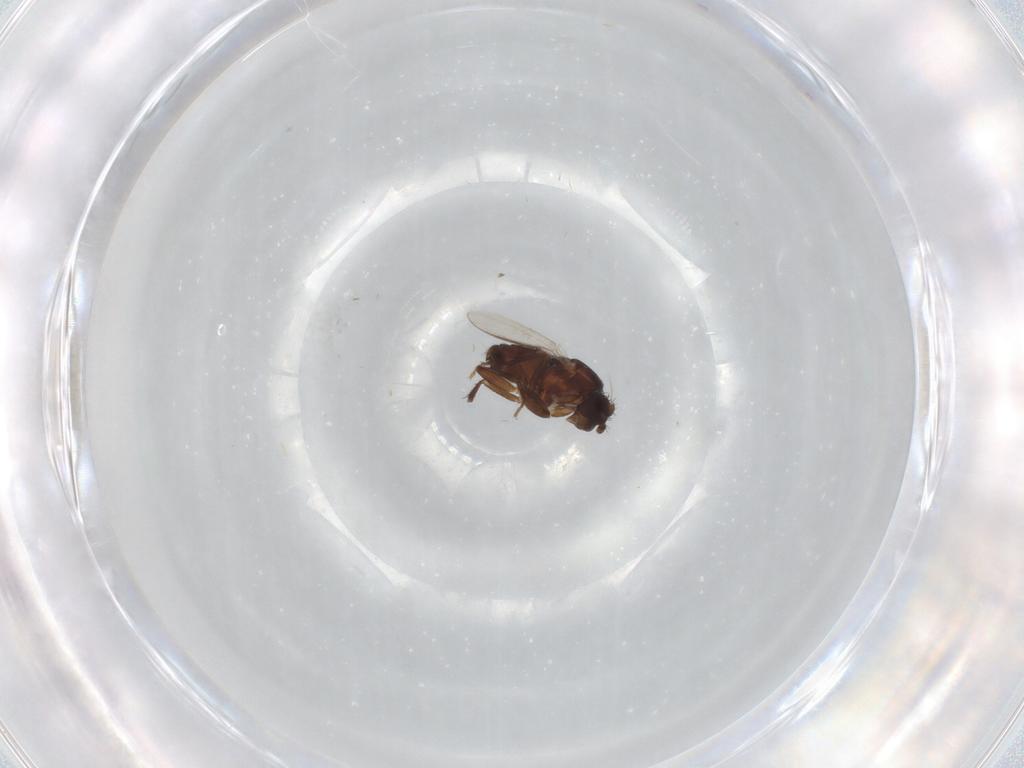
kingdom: Animalia
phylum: Arthropoda
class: Insecta
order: Diptera
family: Sphaeroceridae
